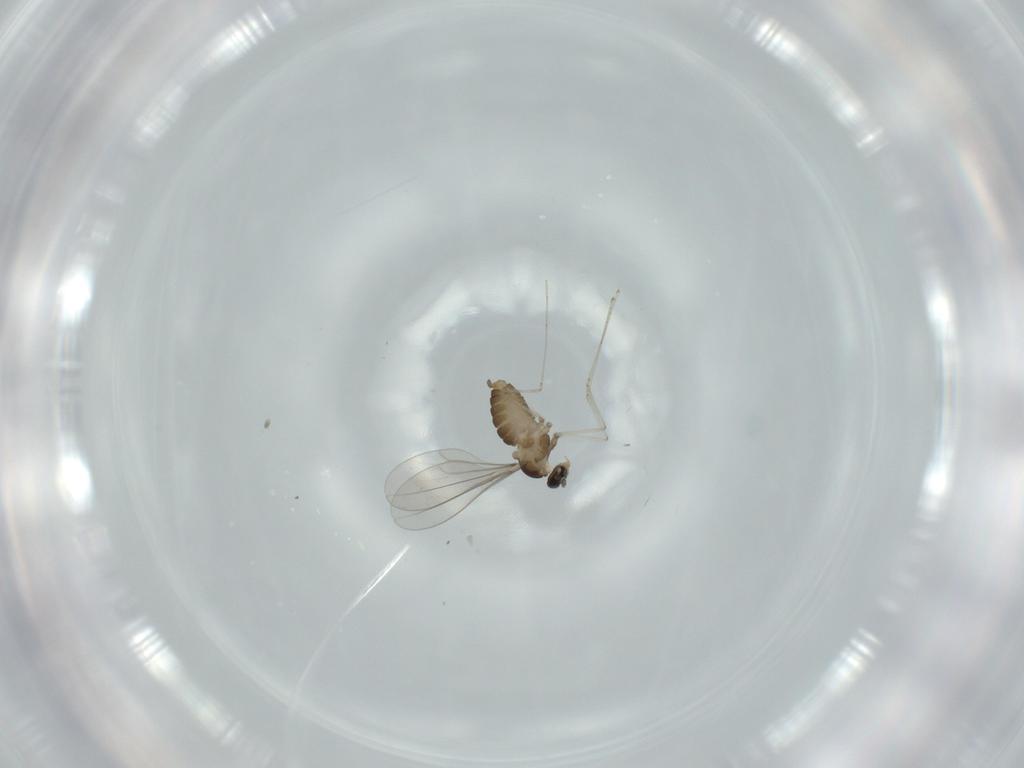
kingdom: Animalia
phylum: Arthropoda
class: Insecta
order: Diptera
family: Cecidomyiidae
